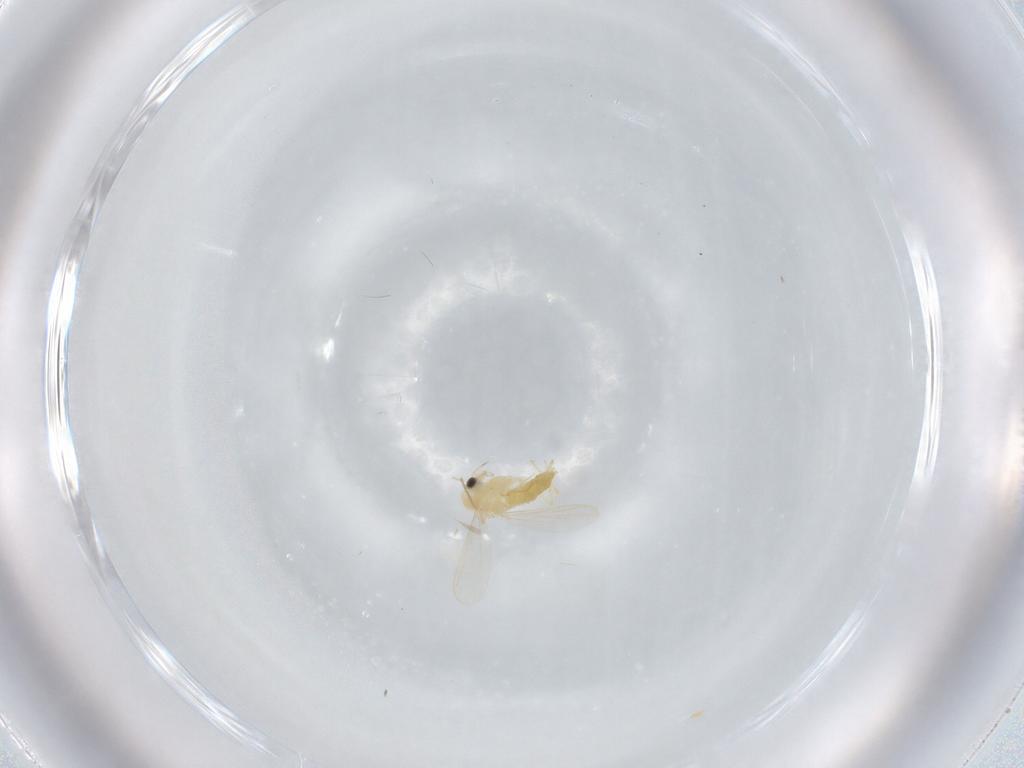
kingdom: Animalia
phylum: Arthropoda
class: Insecta
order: Diptera
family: Chironomidae
